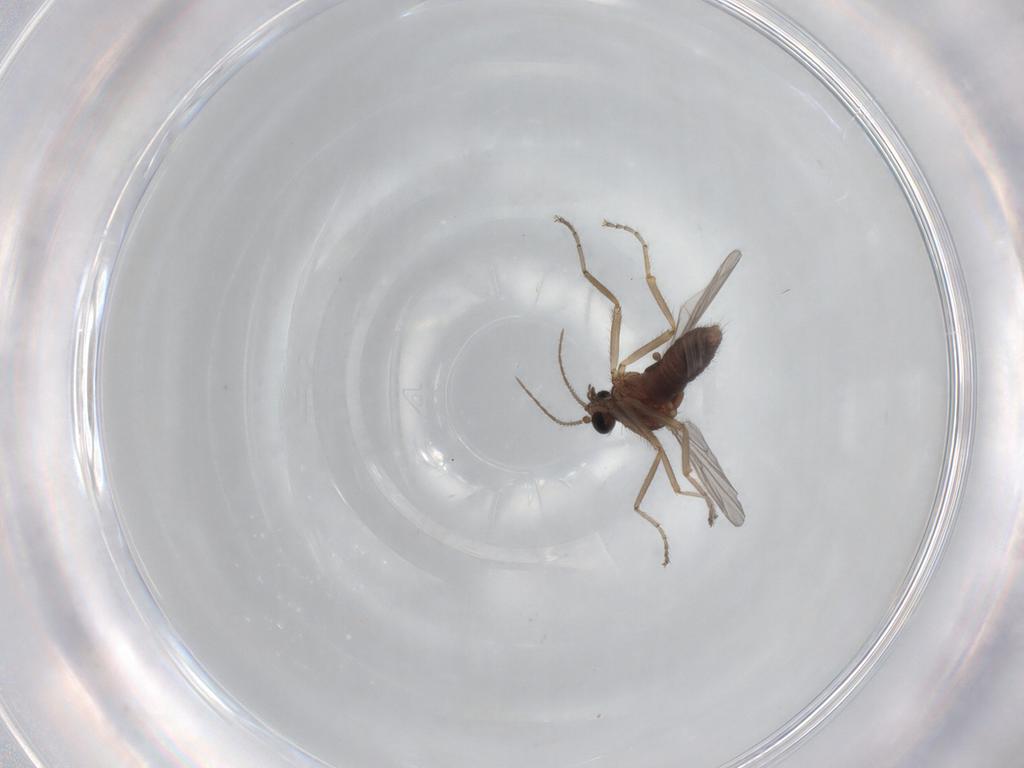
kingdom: Animalia
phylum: Arthropoda
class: Insecta
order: Diptera
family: Ceratopogonidae
